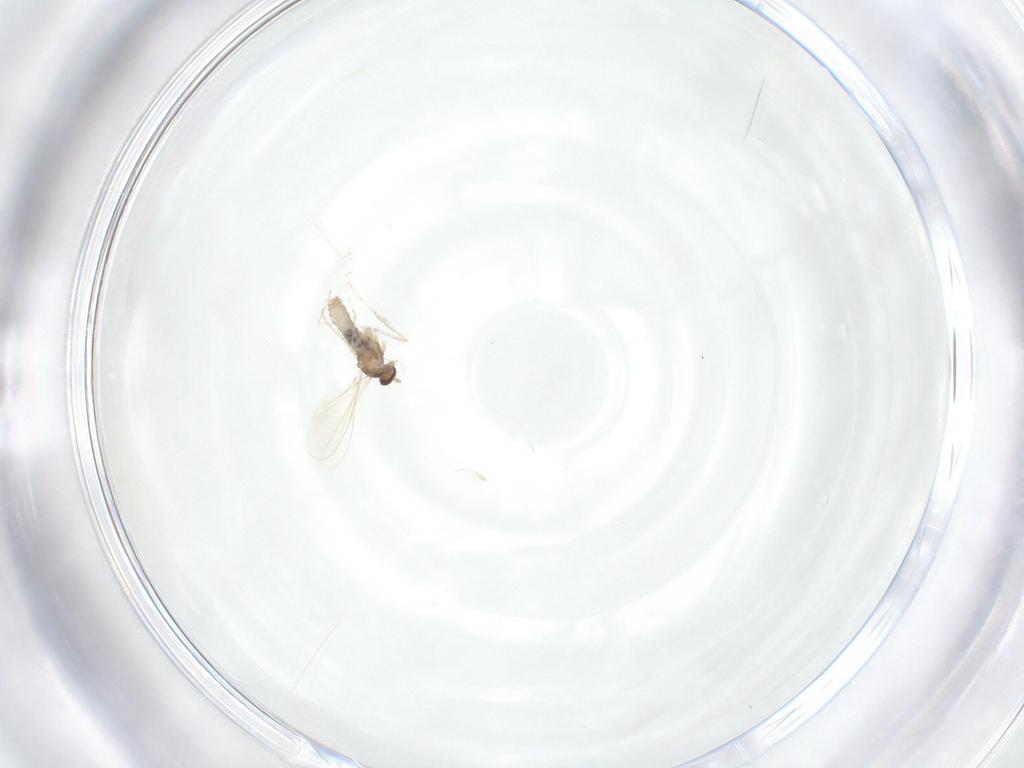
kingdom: Animalia
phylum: Arthropoda
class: Insecta
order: Diptera
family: Cecidomyiidae
